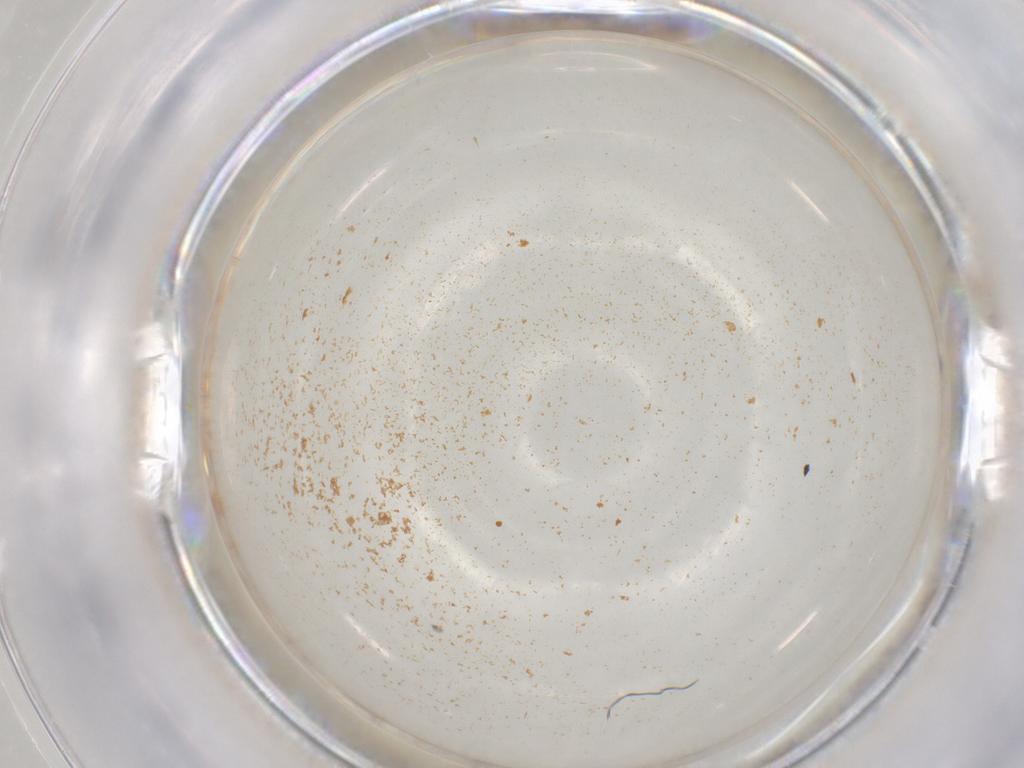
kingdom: Animalia
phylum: Arthropoda
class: Insecta
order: Coleoptera
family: Cantharidae
